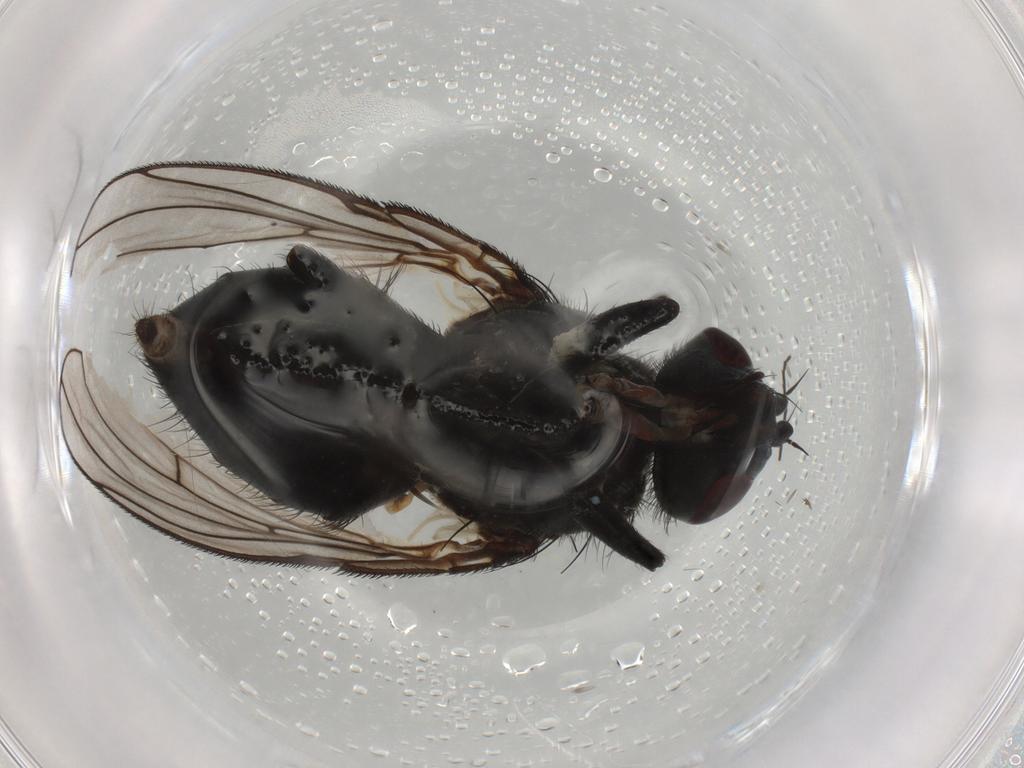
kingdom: Animalia
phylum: Arthropoda
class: Insecta
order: Diptera
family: Muscidae
